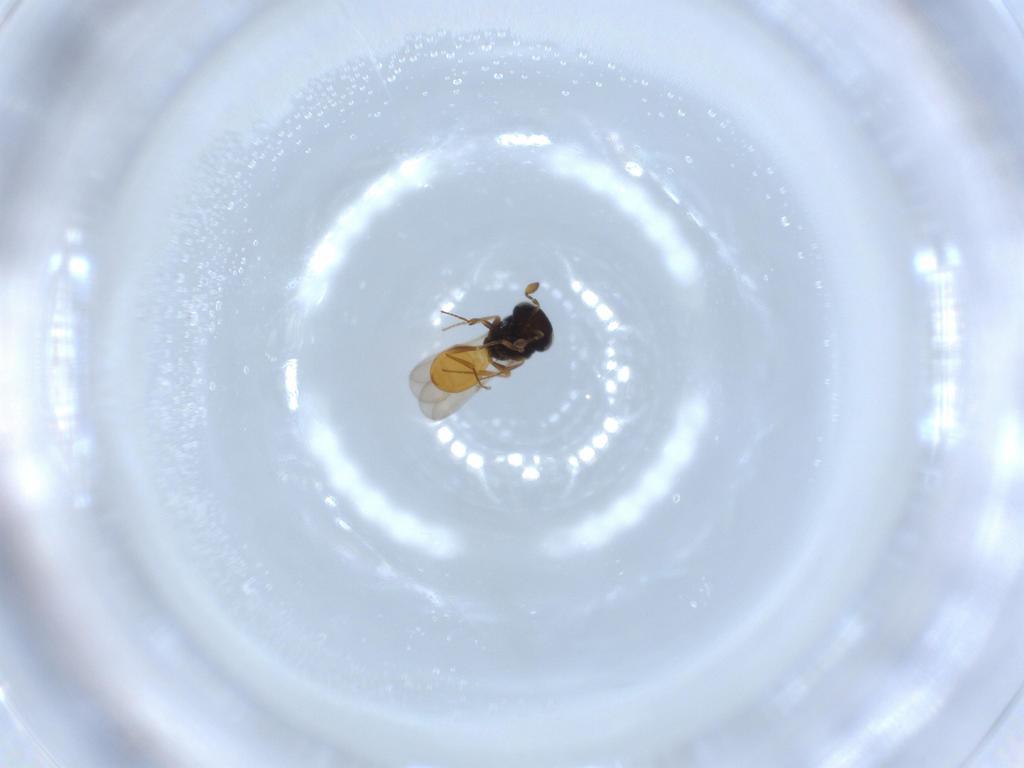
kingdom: Animalia
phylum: Arthropoda
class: Insecta
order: Hymenoptera
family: Scelionidae
